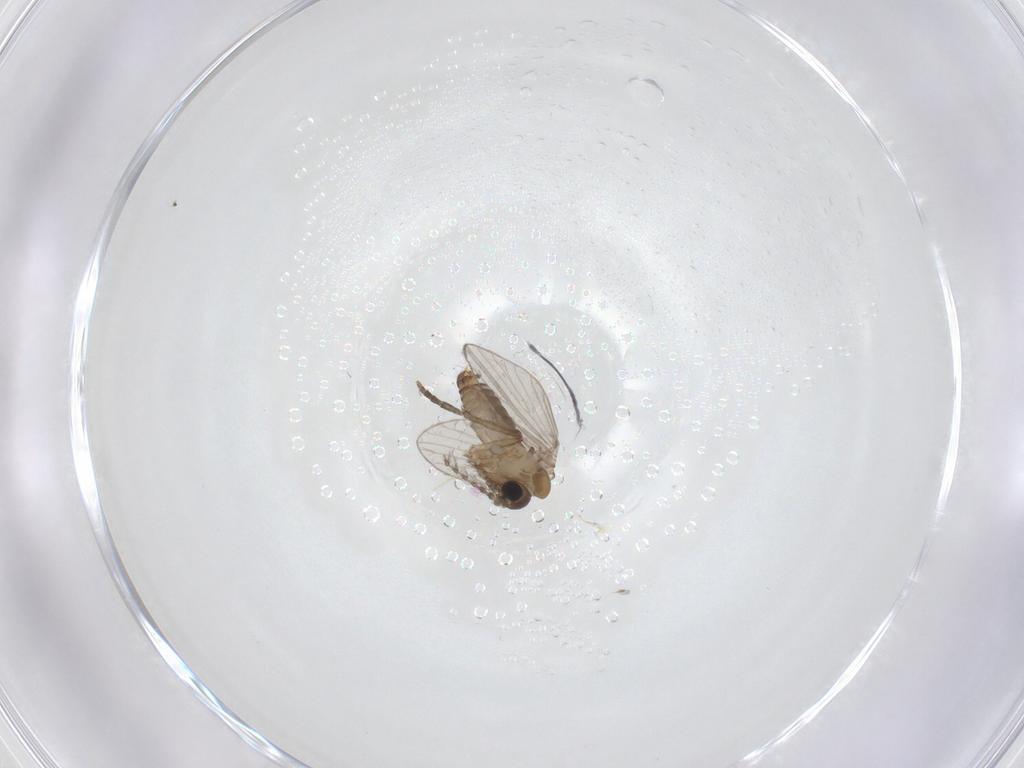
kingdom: Animalia
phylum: Arthropoda
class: Insecta
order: Diptera
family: Psychodidae
